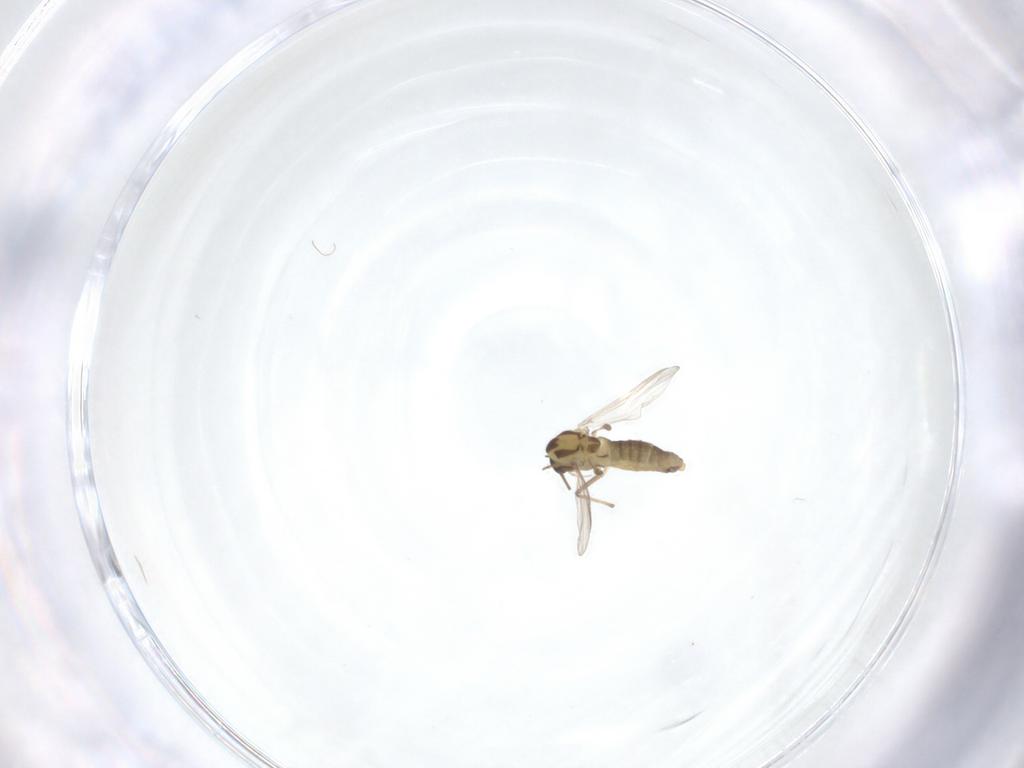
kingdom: Animalia
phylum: Arthropoda
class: Insecta
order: Diptera
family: Chironomidae
